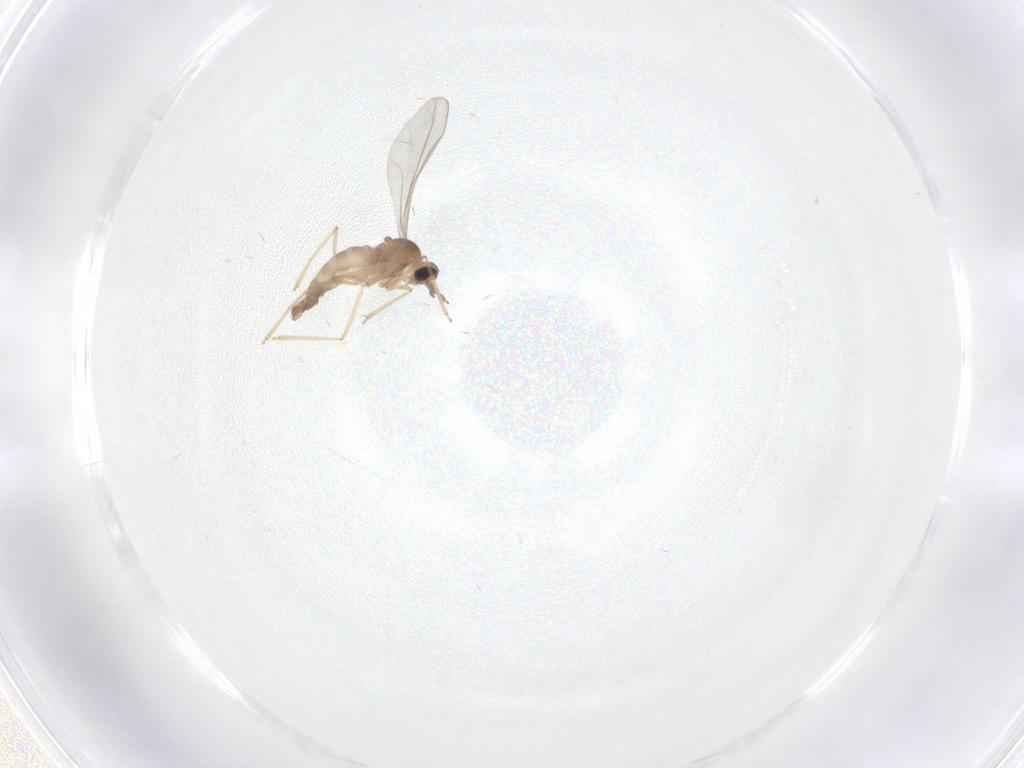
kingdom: Animalia
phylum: Arthropoda
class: Insecta
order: Diptera
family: Cecidomyiidae
